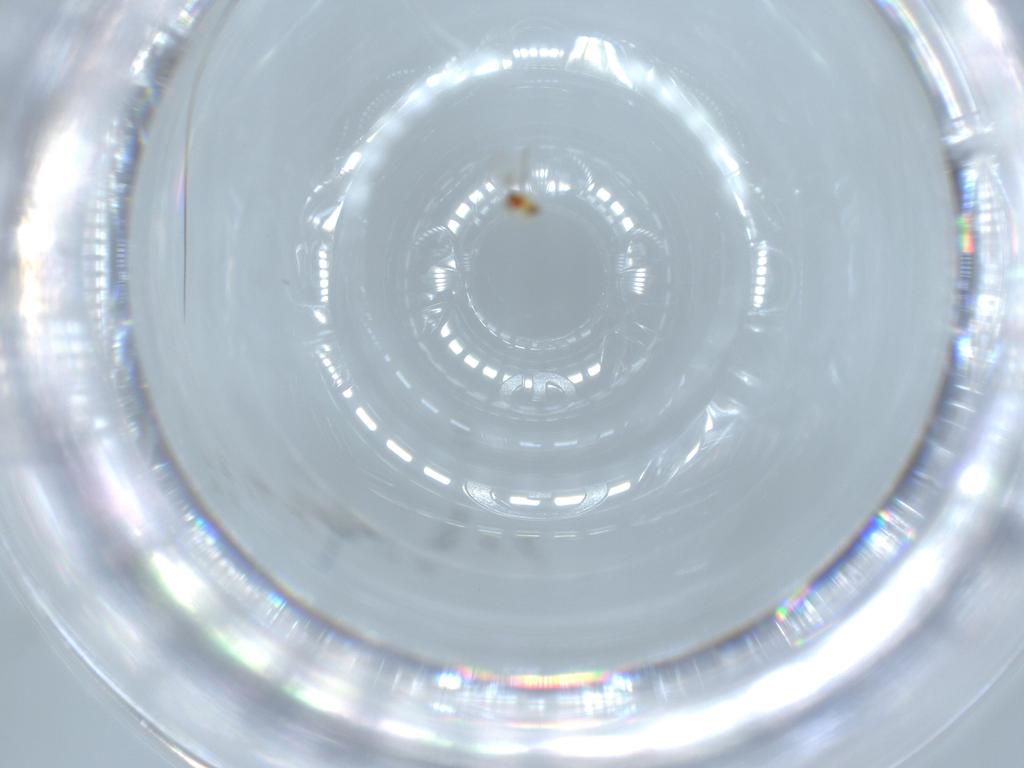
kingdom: Animalia
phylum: Arthropoda
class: Insecta
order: Hymenoptera
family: Trichogrammatidae
